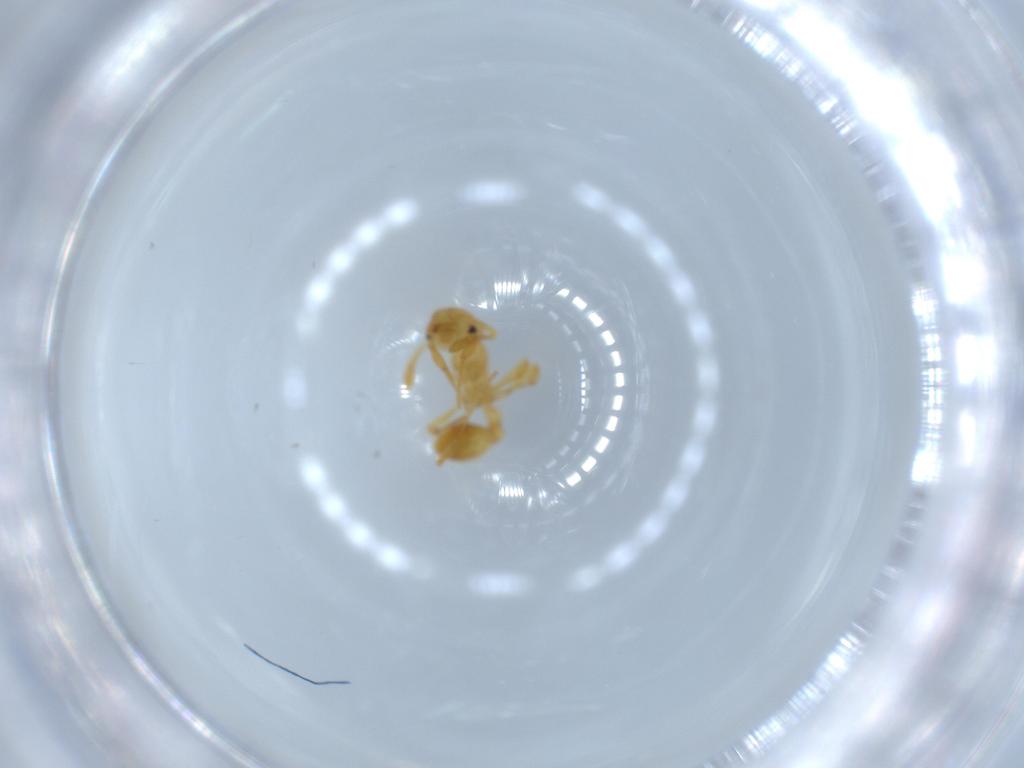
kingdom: Animalia
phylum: Arthropoda
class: Insecta
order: Hymenoptera
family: Formicidae
